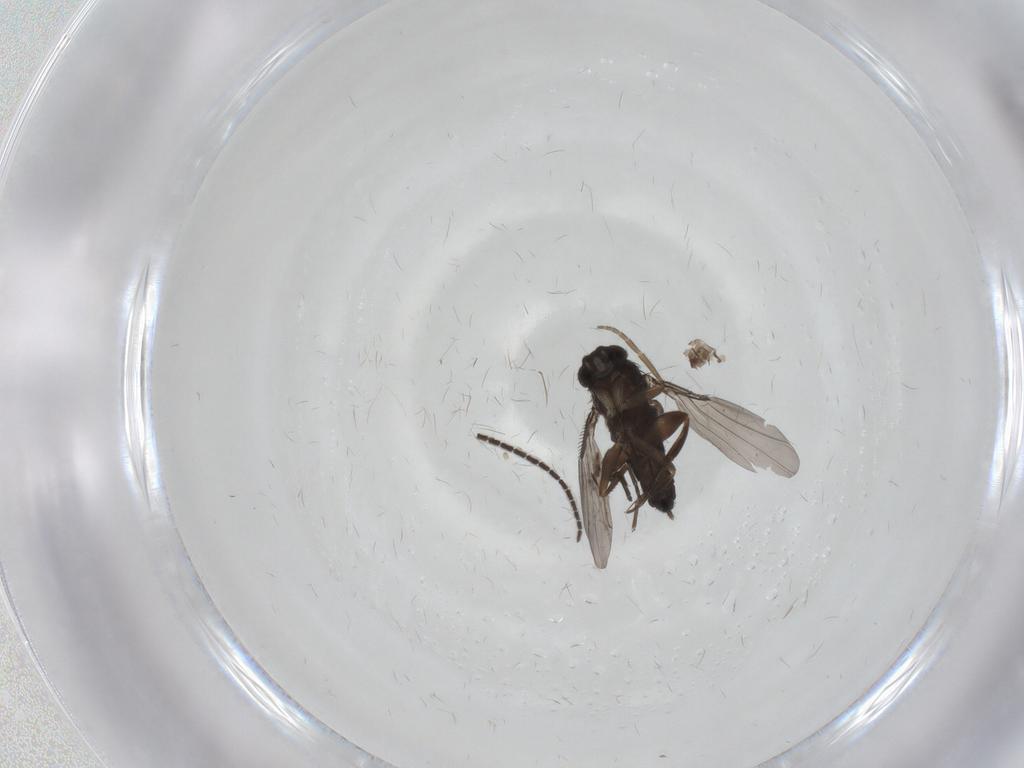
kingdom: Animalia
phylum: Arthropoda
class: Insecta
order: Diptera
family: Phoridae
